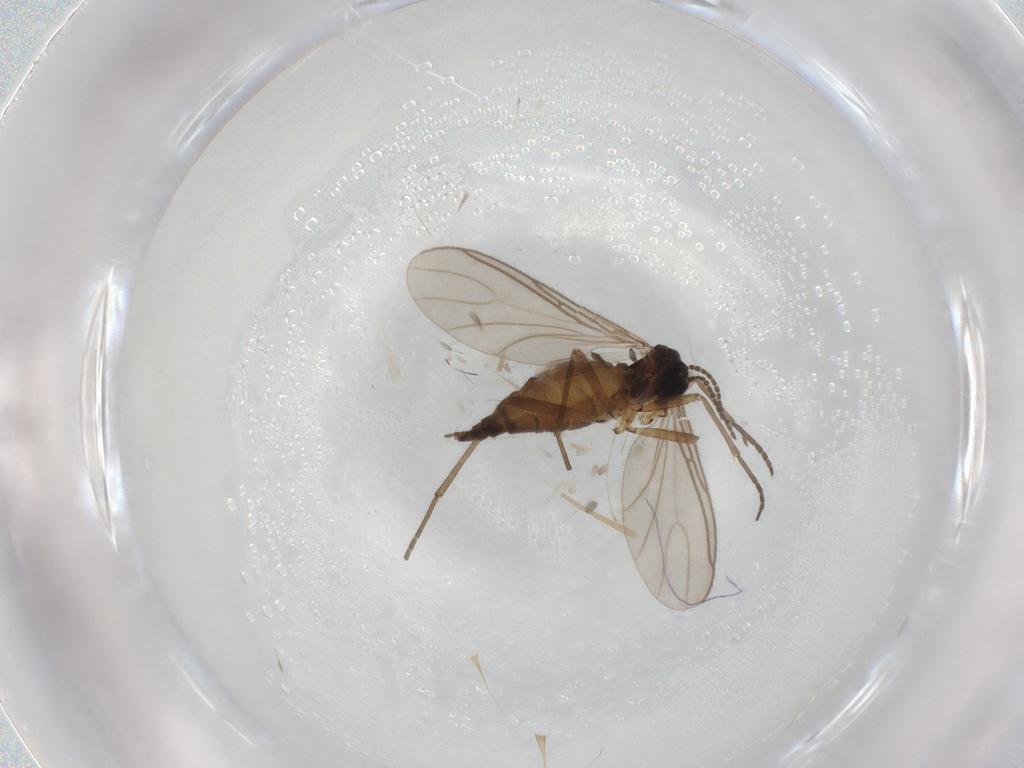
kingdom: Animalia
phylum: Arthropoda
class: Insecta
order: Diptera
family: Sciaridae
